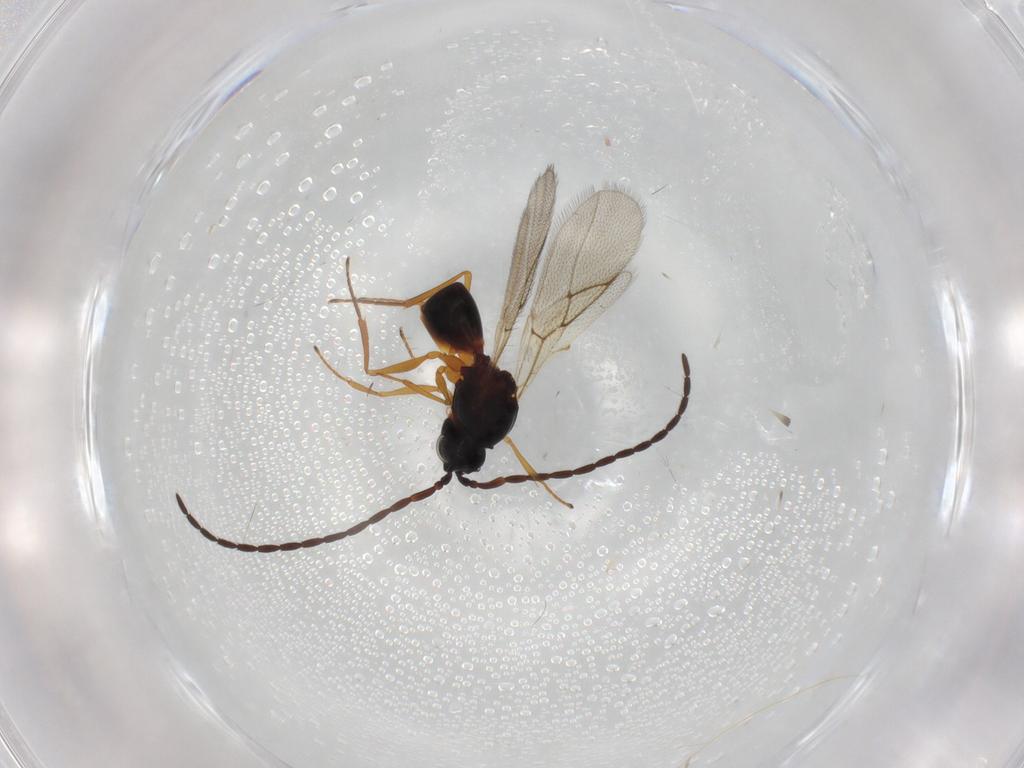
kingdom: Animalia
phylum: Arthropoda
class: Insecta
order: Hymenoptera
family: Figitidae
